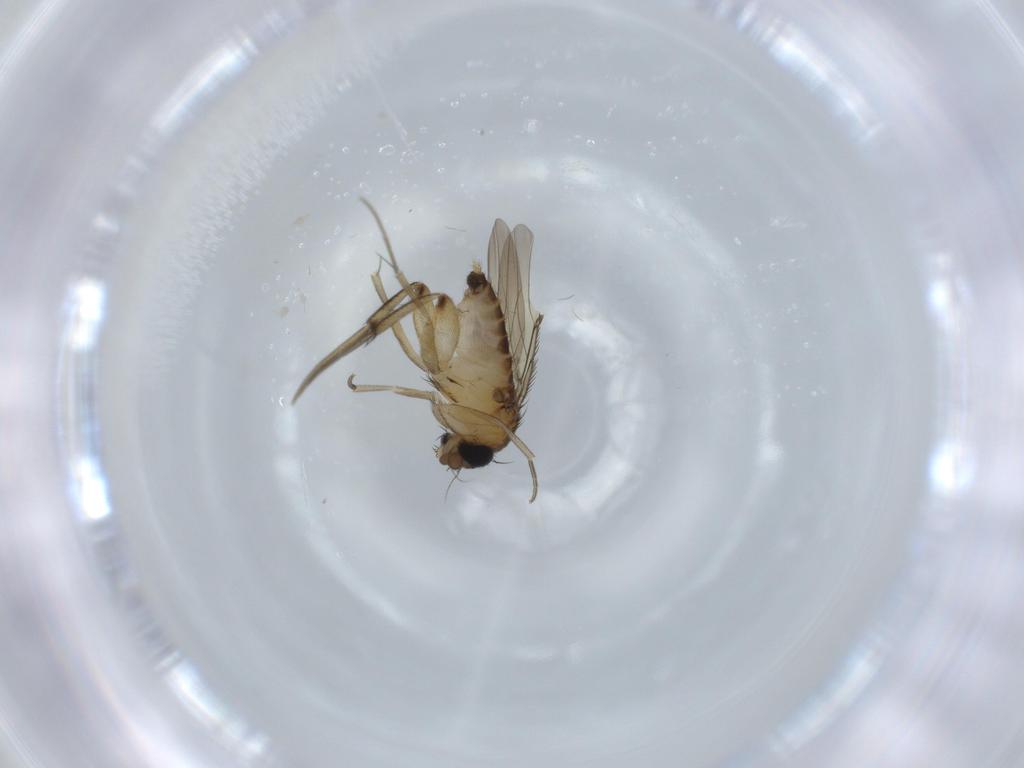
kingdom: Animalia
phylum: Arthropoda
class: Insecta
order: Diptera
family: Phoridae
